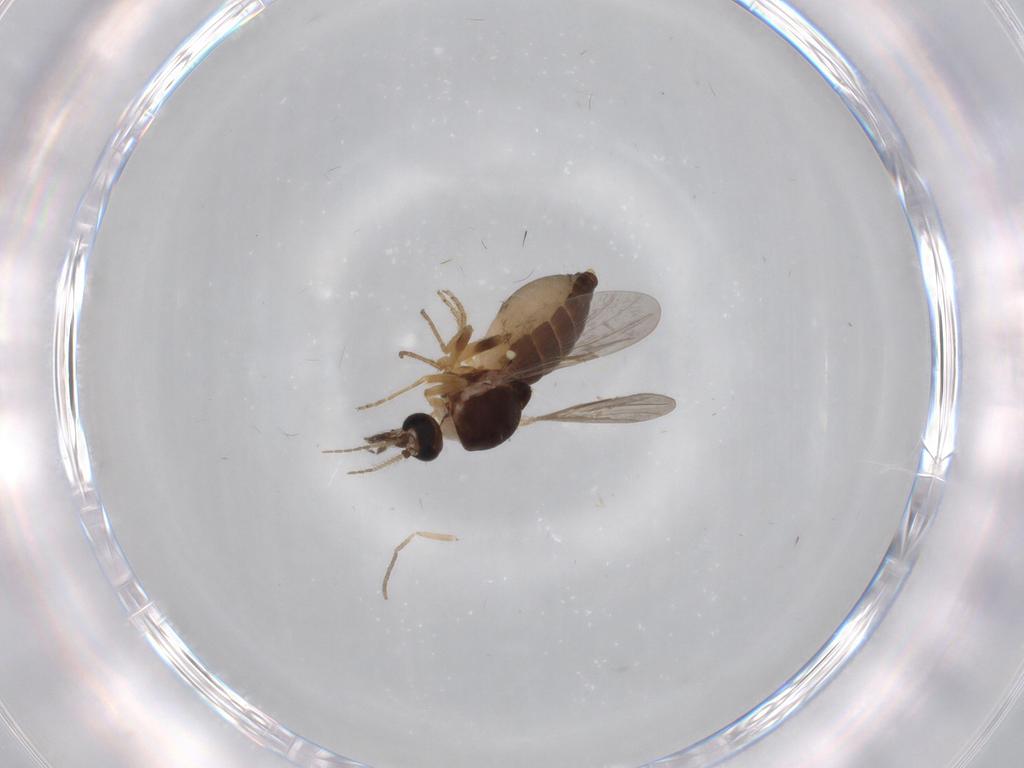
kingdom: Animalia
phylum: Arthropoda
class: Insecta
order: Diptera
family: Ceratopogonidae
